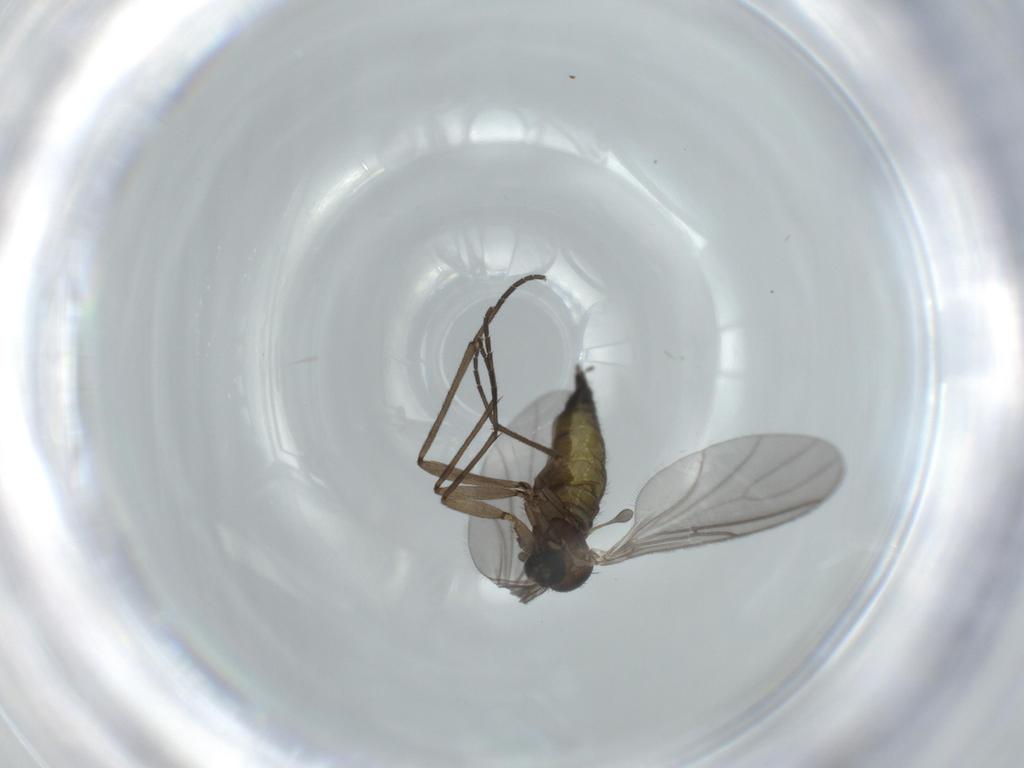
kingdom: Animalia
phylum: Arthropoda
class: Insecta
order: Diptera
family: Sciaridae
